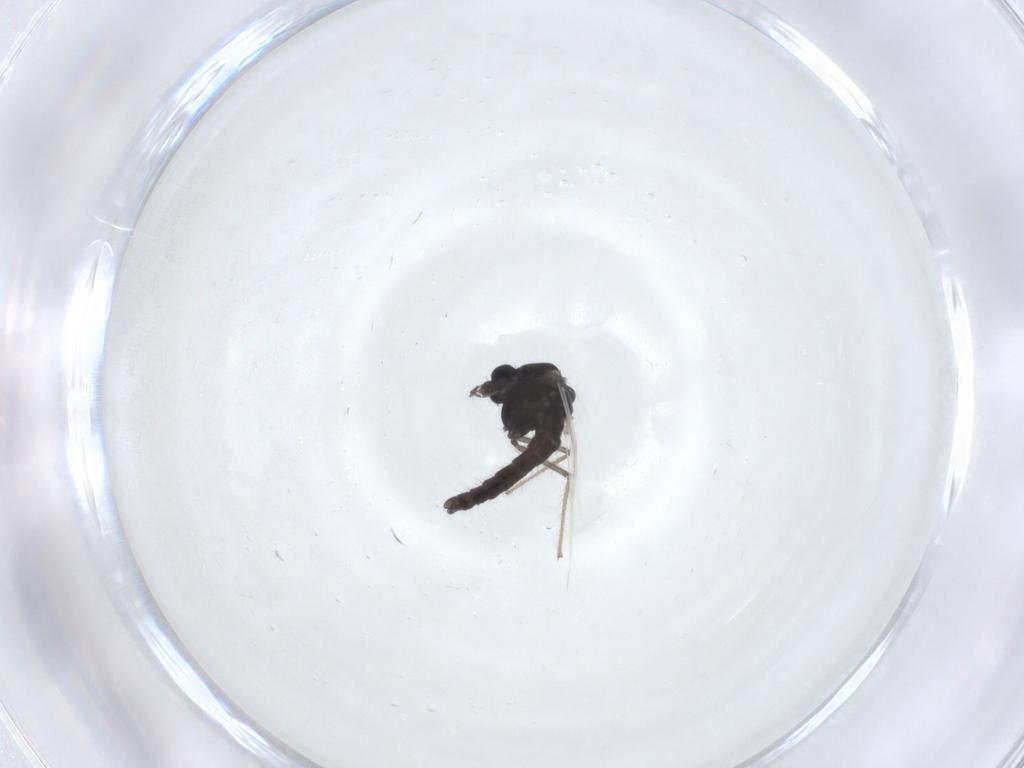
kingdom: Animalia
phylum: Arthropoda
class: Insecta
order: Diptera
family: Chironomidae
